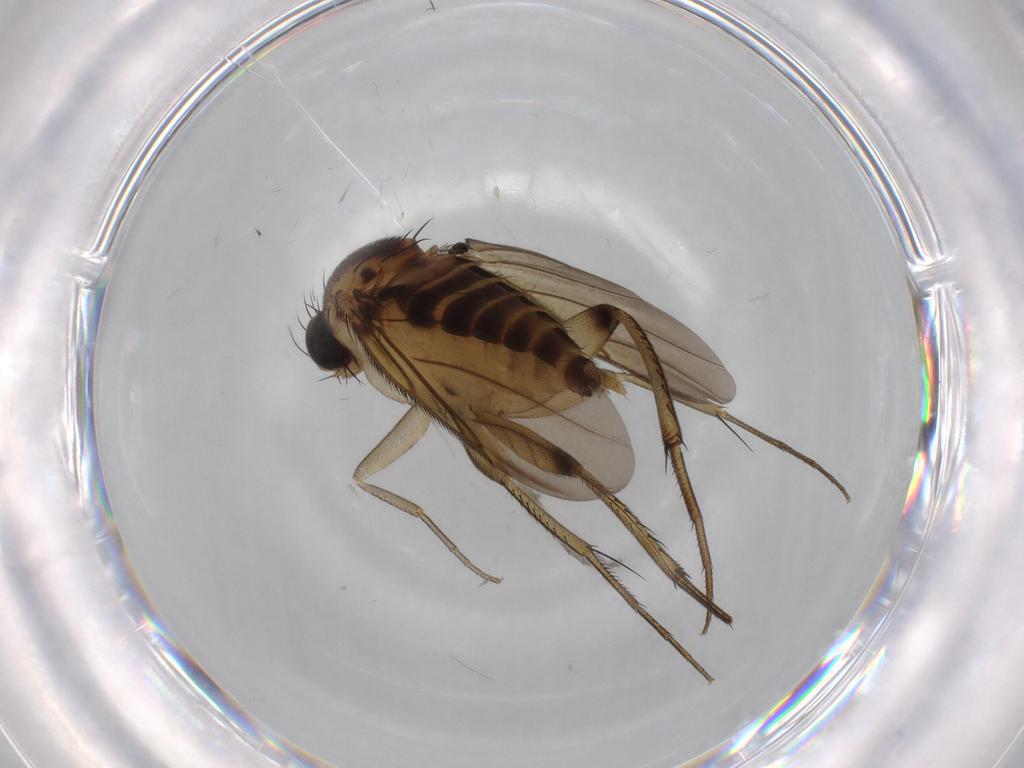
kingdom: Animalia
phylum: Arthropoda
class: Insecta
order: Diptera
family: Phoridae
